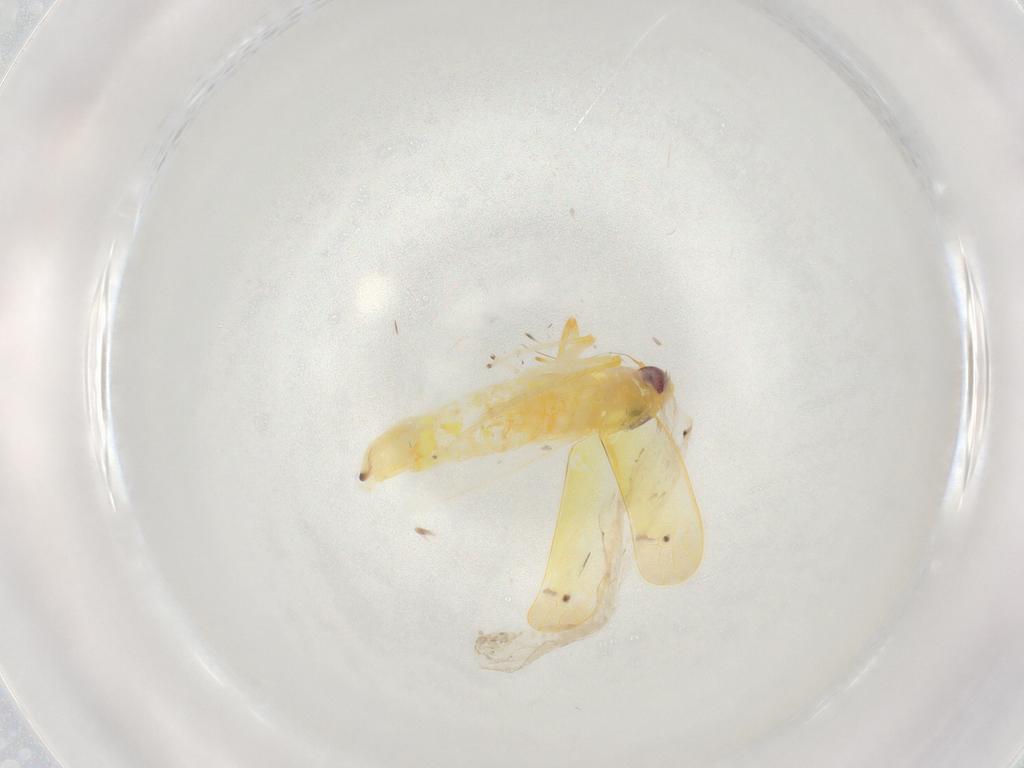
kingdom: Animalia
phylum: Arthropoda
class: Insecta
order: Hemiptera
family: Cicadellidae
